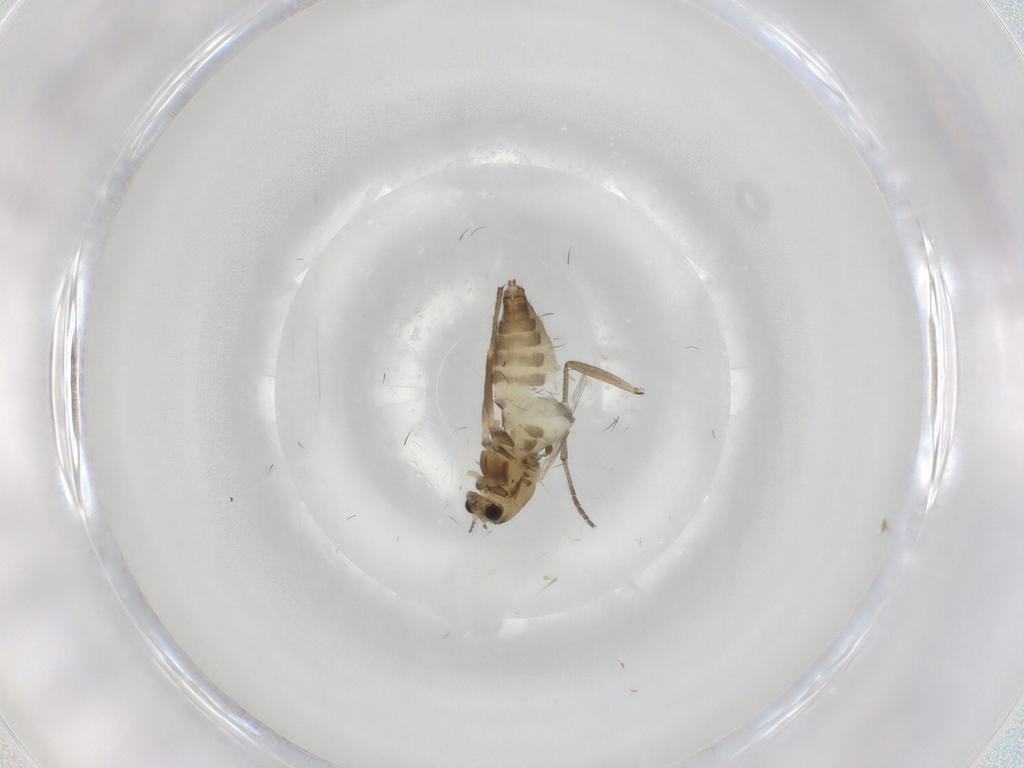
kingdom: Animalia
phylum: Arthropoda
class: Insecta
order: Diptera
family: Chironomidae
